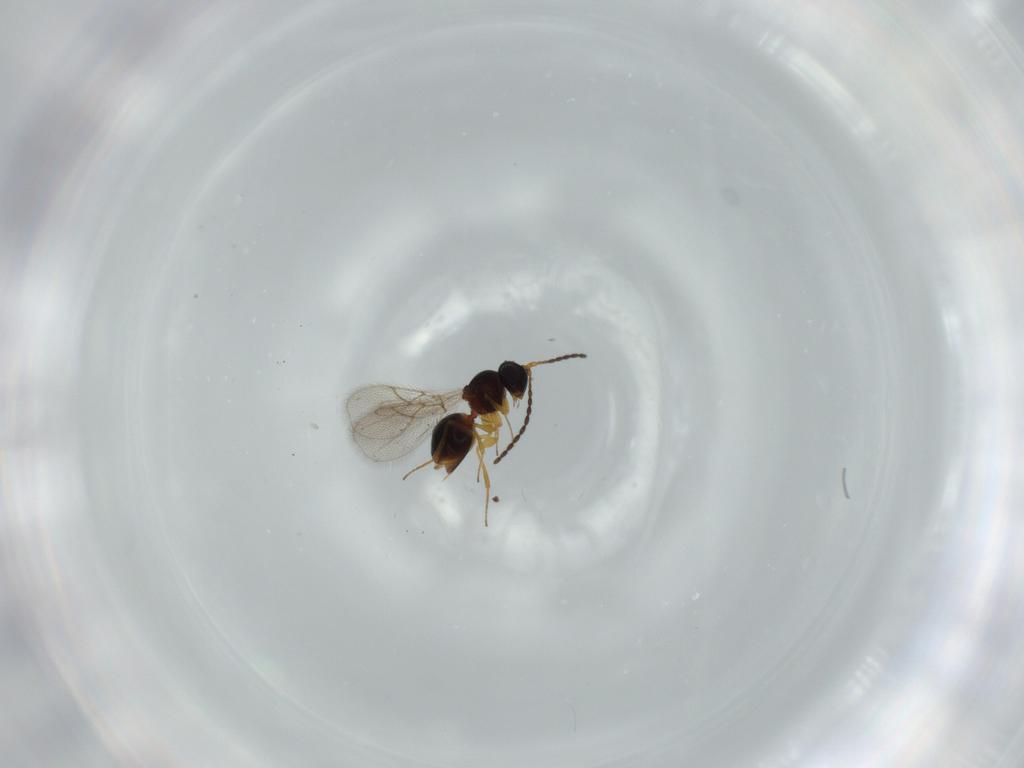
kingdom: Animalia
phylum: Arthropoda
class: Insecta
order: Hymenoptera
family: Figitidae
